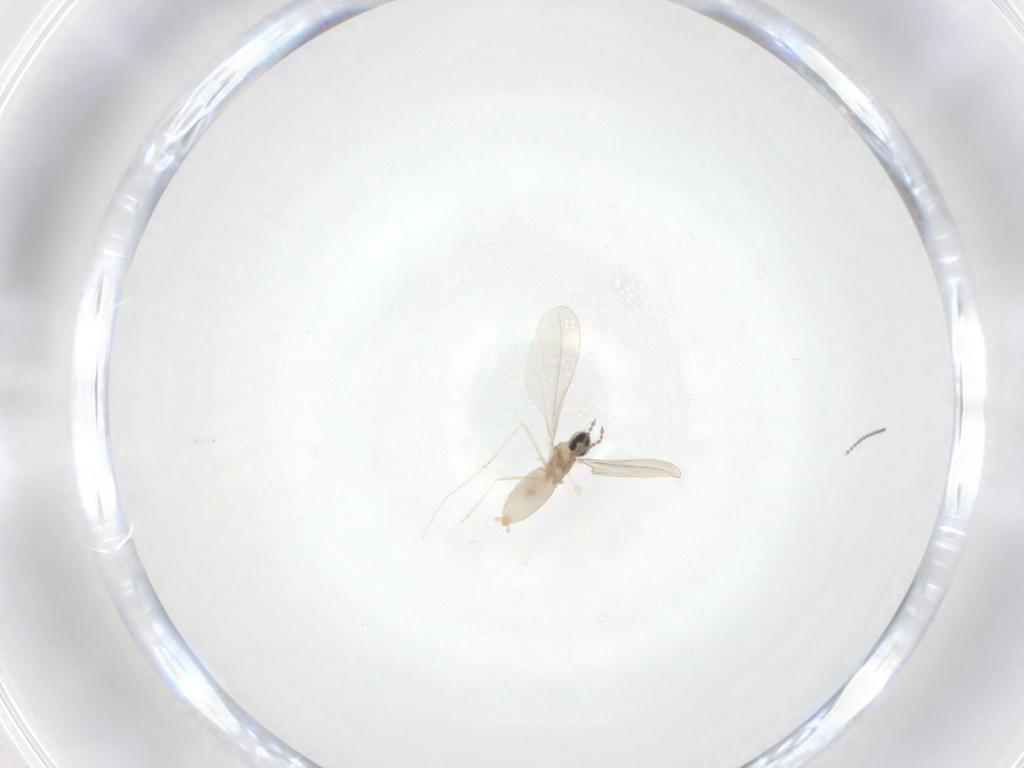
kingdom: Animalia
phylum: Arthropoda
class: Insecta
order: Diptera
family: Cecidomyiidae
